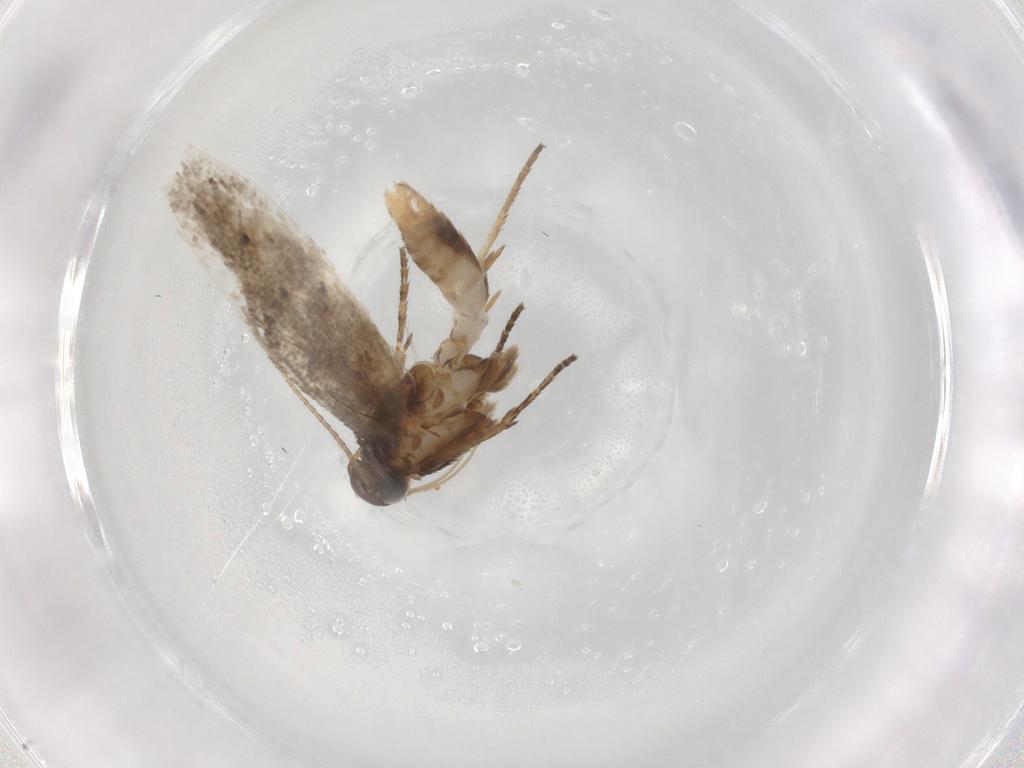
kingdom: Animalia
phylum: Arthropoda
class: Insecta
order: Lepidoptera
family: Gelechiidae
